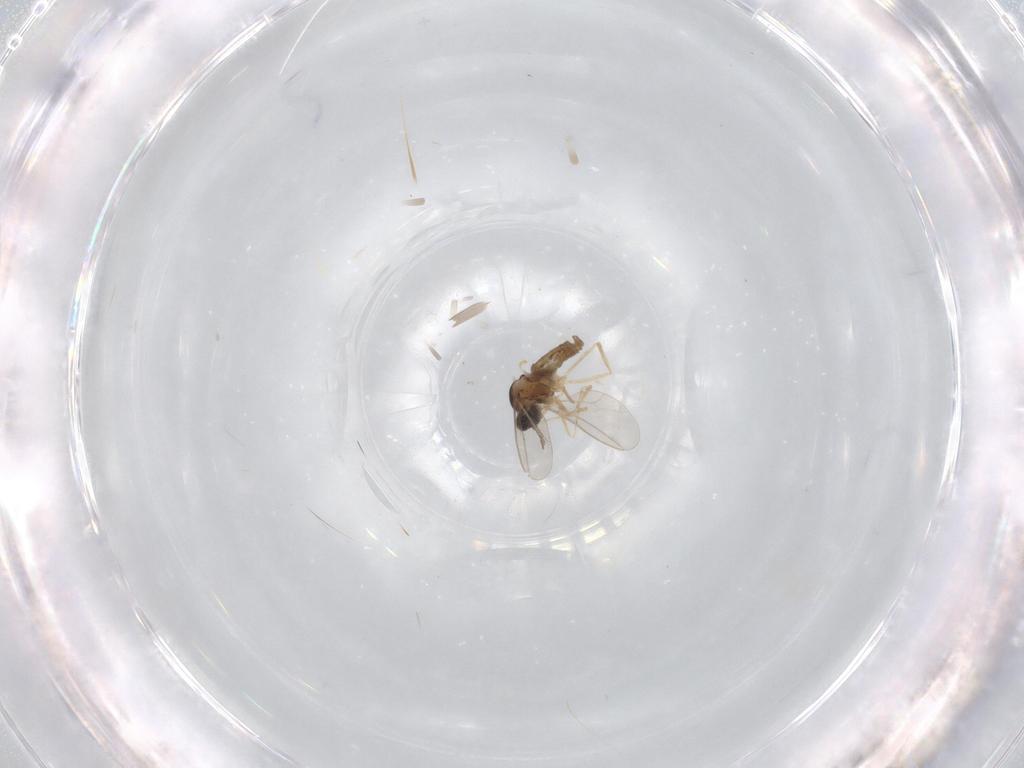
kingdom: Animalia
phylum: Arthropoda
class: Insecta
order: Diptera
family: Chironomidae
